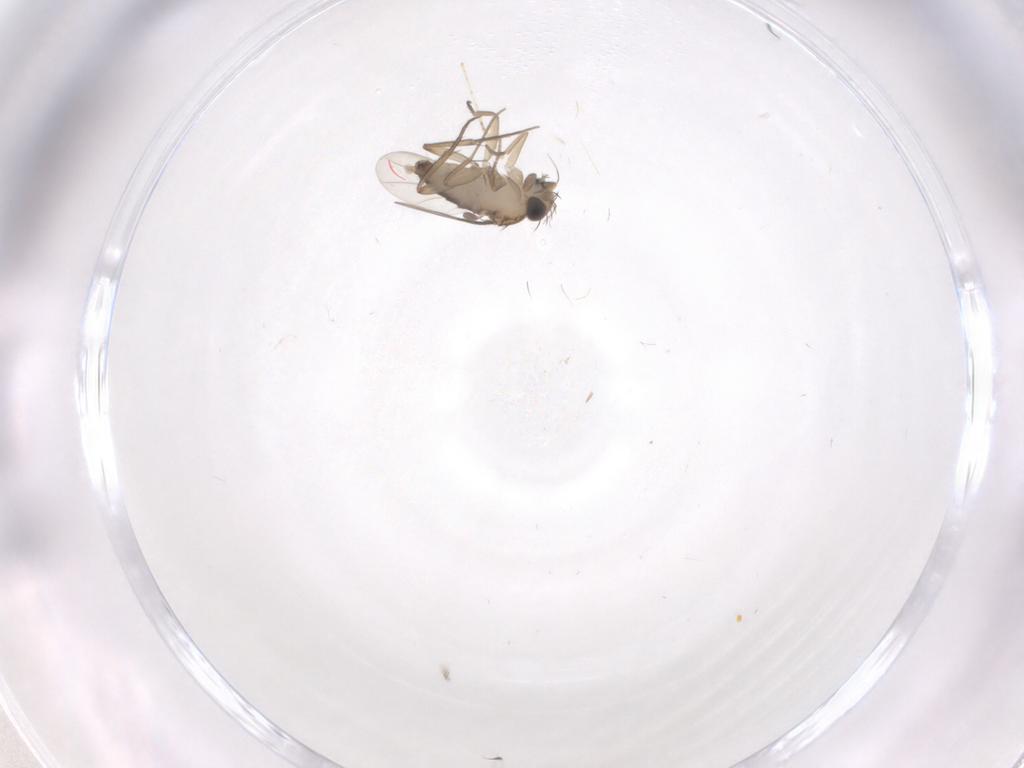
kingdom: Animalia
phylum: Arthropoda
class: Insecta
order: Diptera
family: Phoridae
